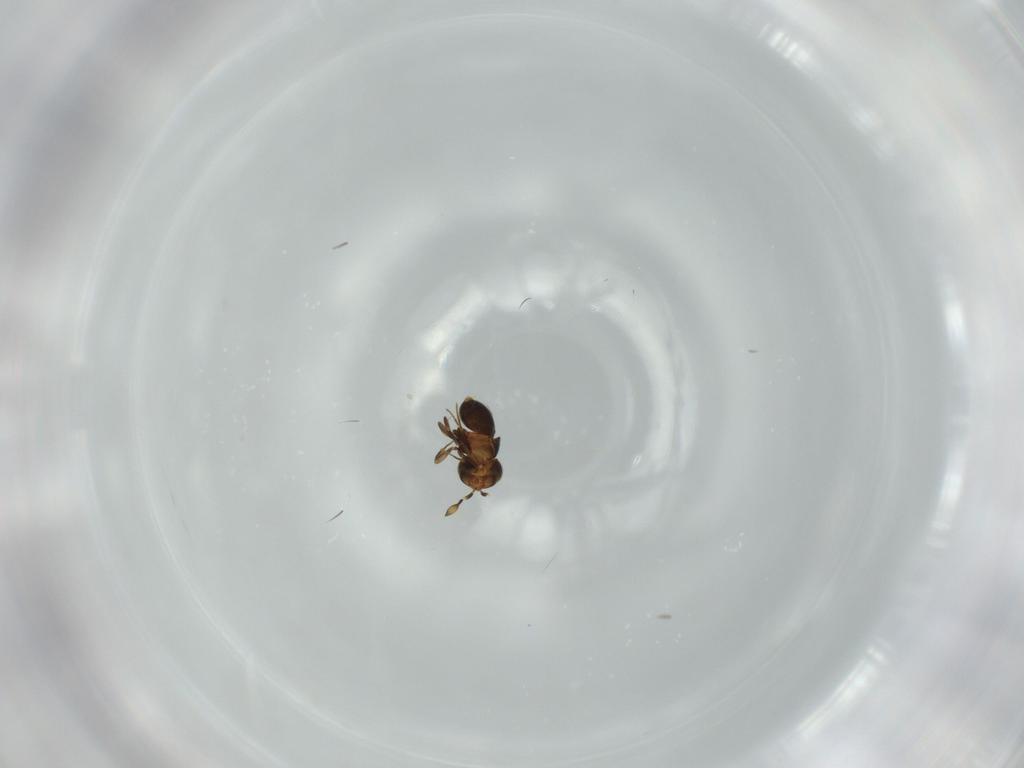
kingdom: Animalia
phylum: Arthropoda
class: Insecta
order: Hymenoptera
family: Scelionidae
